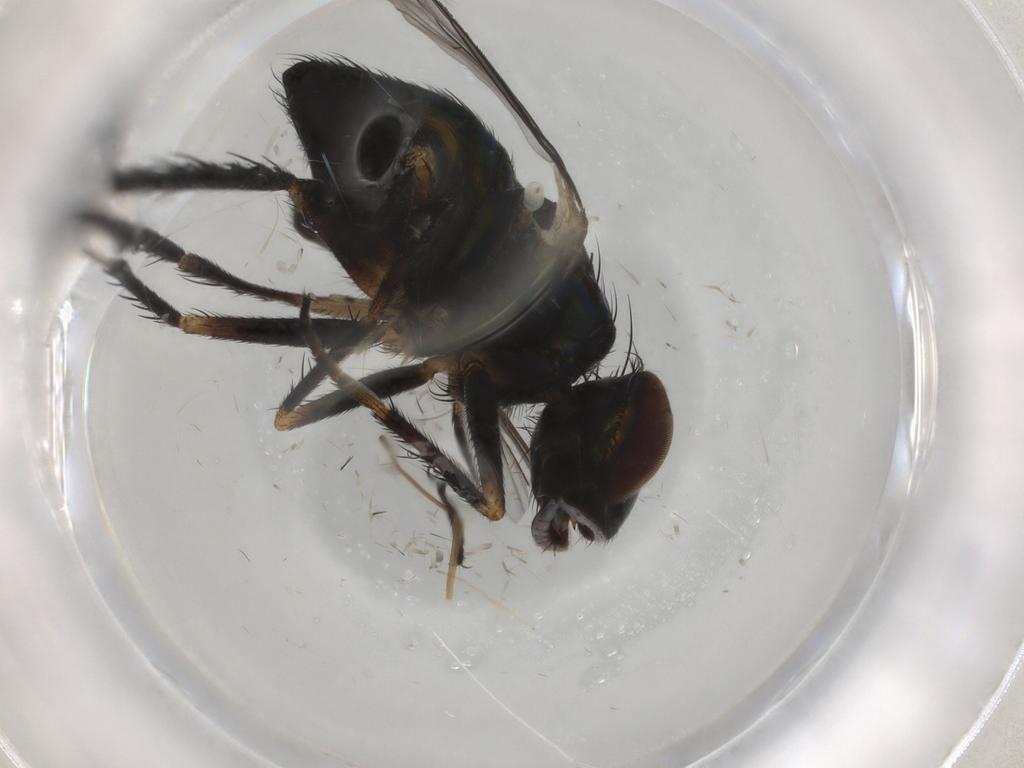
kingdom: Animalia
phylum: Arthropoda
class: Insecta
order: Diptera
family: Dolichopodidae
